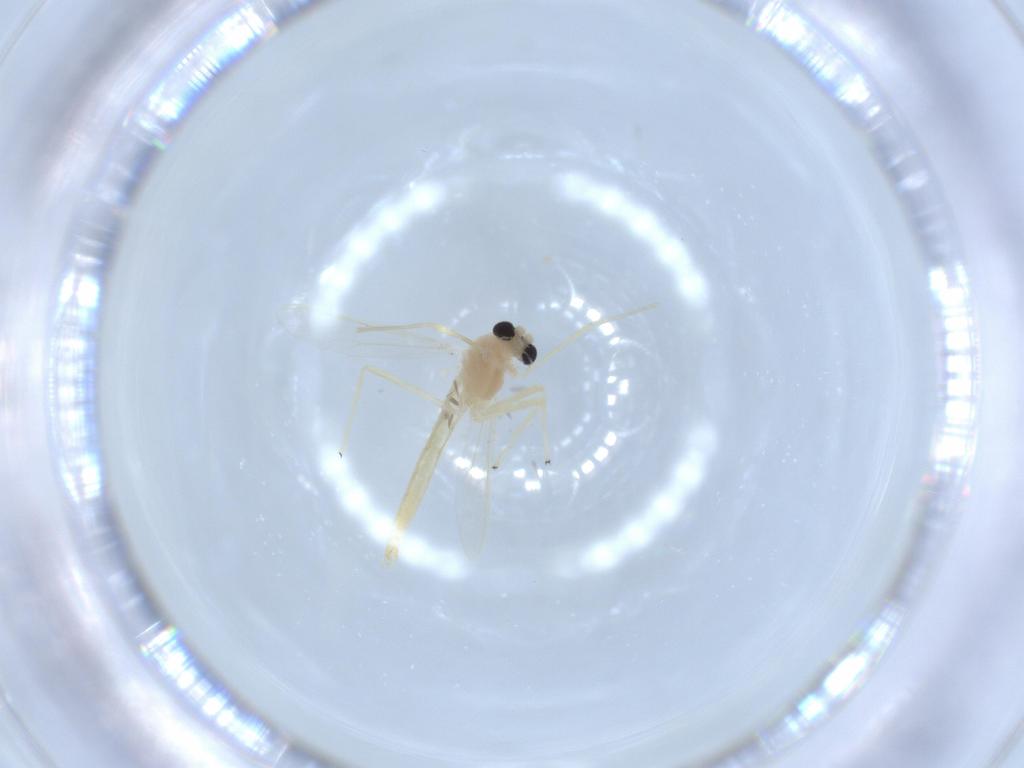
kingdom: Animalia
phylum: Arthropoda
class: Insecta
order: Diptera
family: Chironomidae
